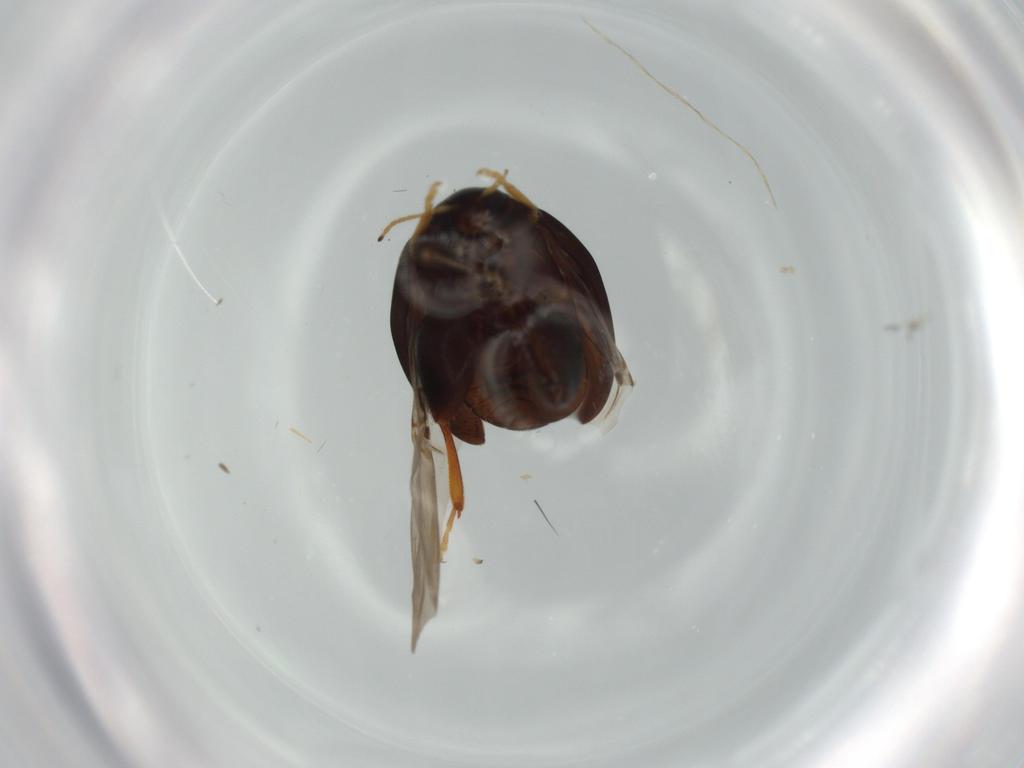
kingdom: Animalia
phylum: Arthropoda
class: Insecta
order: Coleoptera
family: Chrysomelidae
